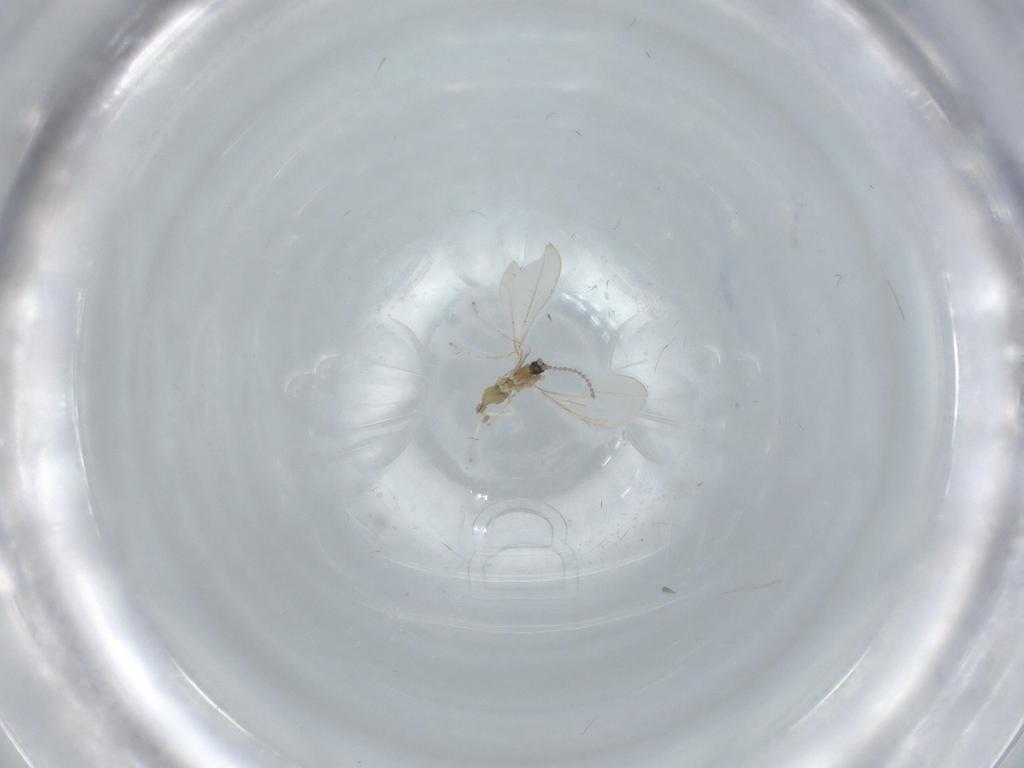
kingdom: Animalia
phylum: Arthropoda
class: Insecta
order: Diptera
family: Cecidomyiidae
